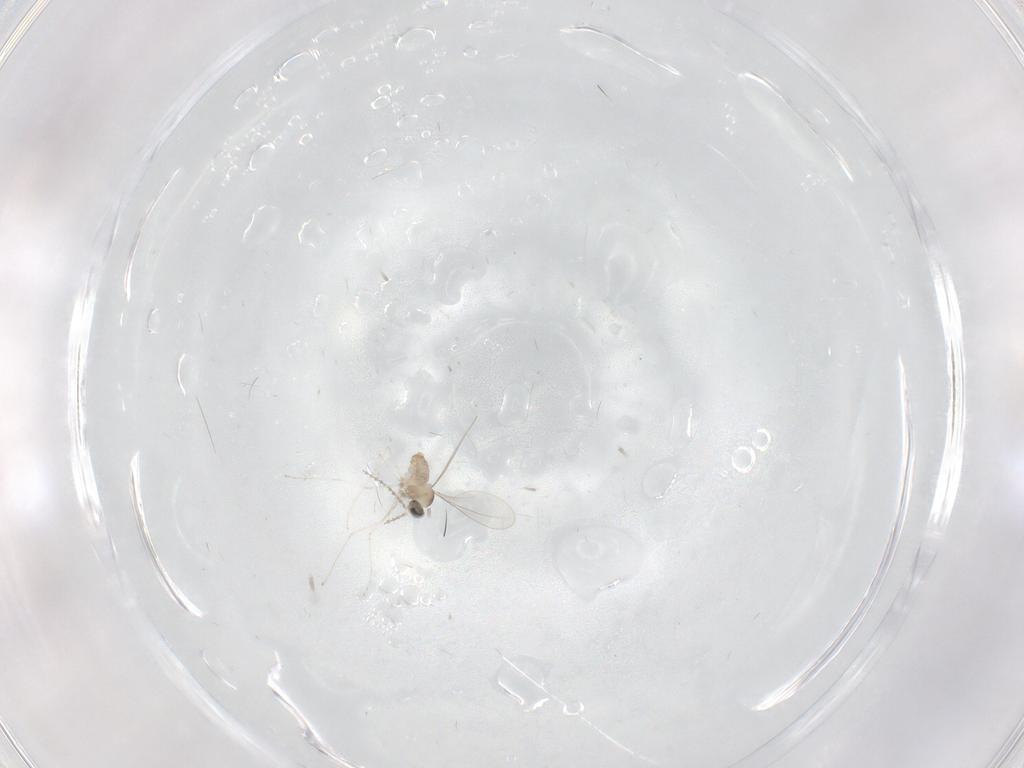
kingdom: Animalia
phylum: Arthropoda
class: Insecta
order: Diptera
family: Cecidomyiidae
